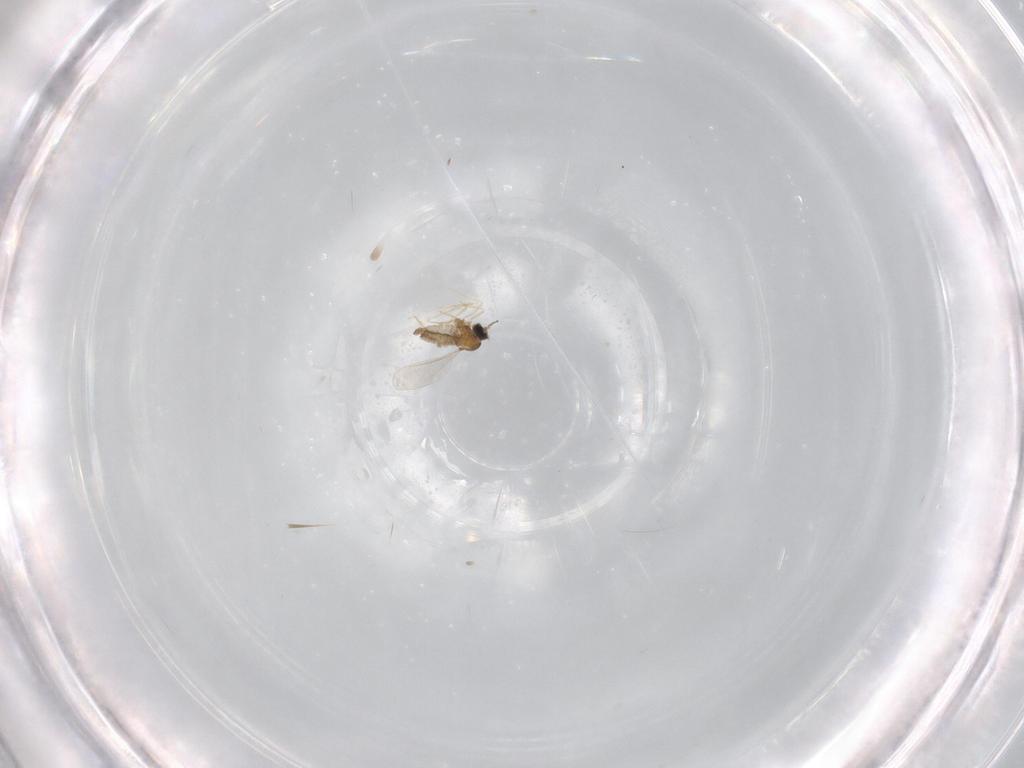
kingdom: Animalia
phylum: Arthropoda
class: Insecta
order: Diptera
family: Cecidomyiidae
